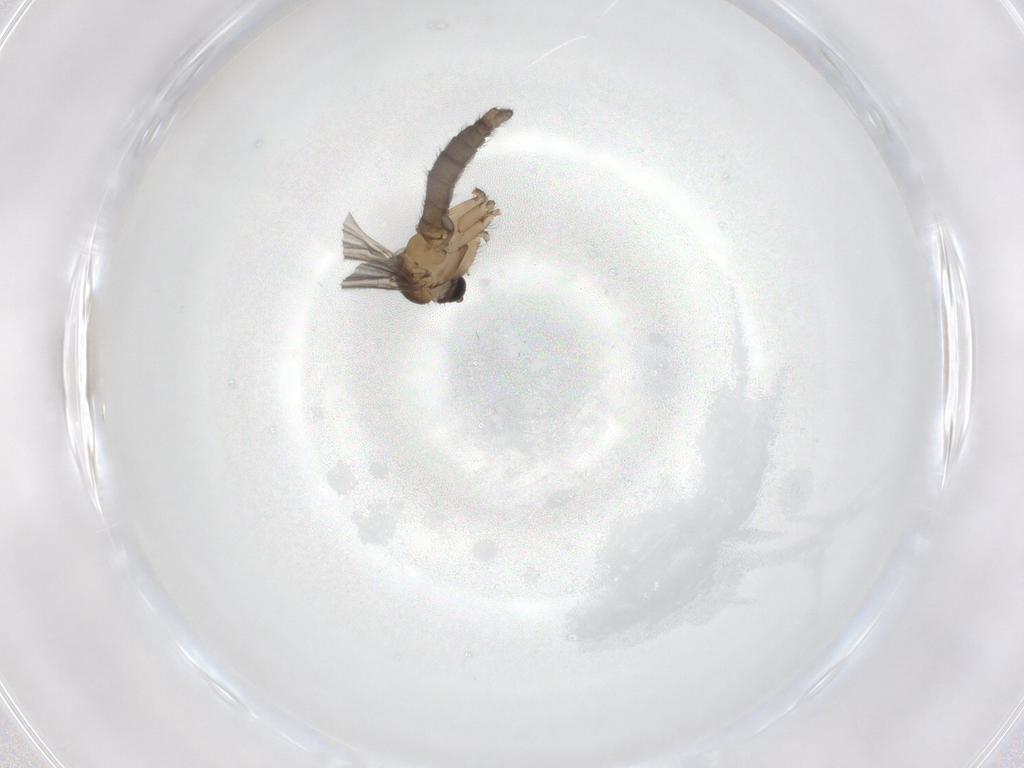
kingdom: Animalia
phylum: Arthropoda
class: Insecta
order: Diptera
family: Sciaridae
